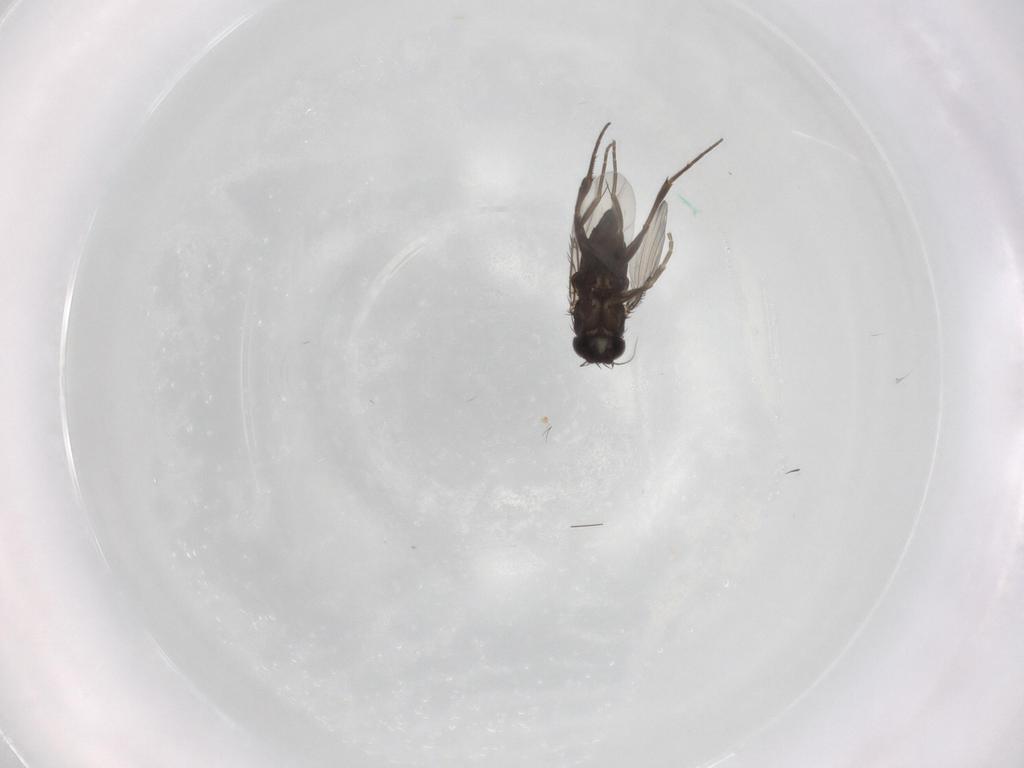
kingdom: Animalia
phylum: Arthropoda
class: Insecta
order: Diptera
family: Phoridae
